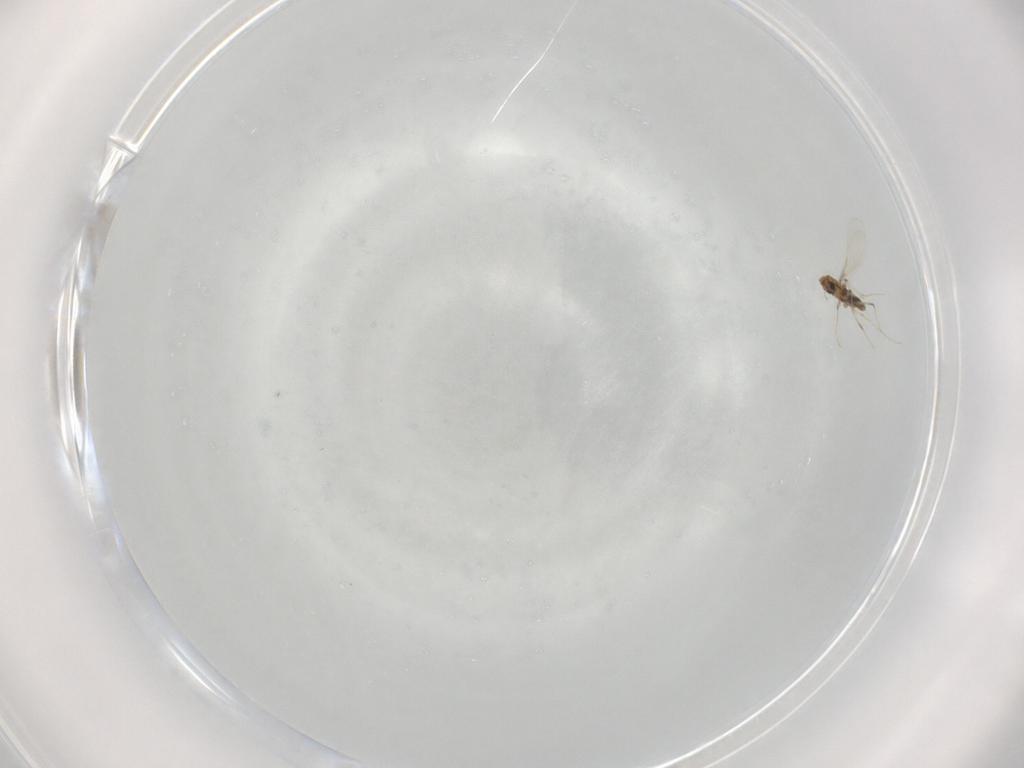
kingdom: Animalia
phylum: Arthropoda
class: Insecta
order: Diptera
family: Chironomidae
